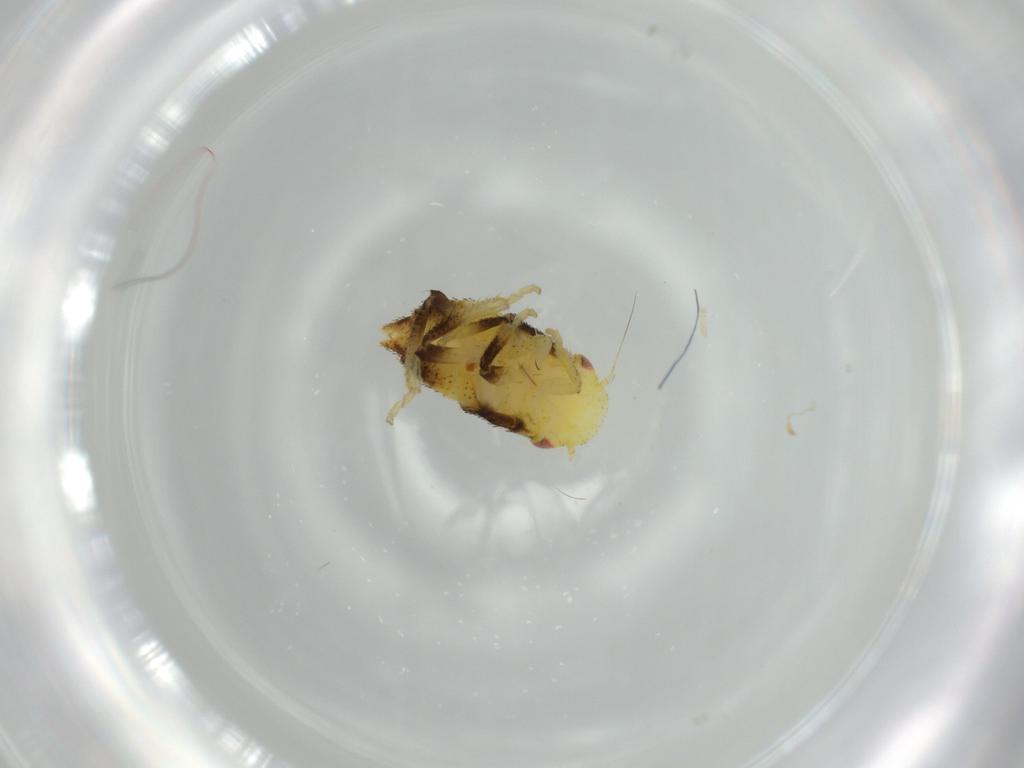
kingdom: Animalia
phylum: Arthropoda
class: Insecta
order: Hemiptera
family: Cicadellidae
